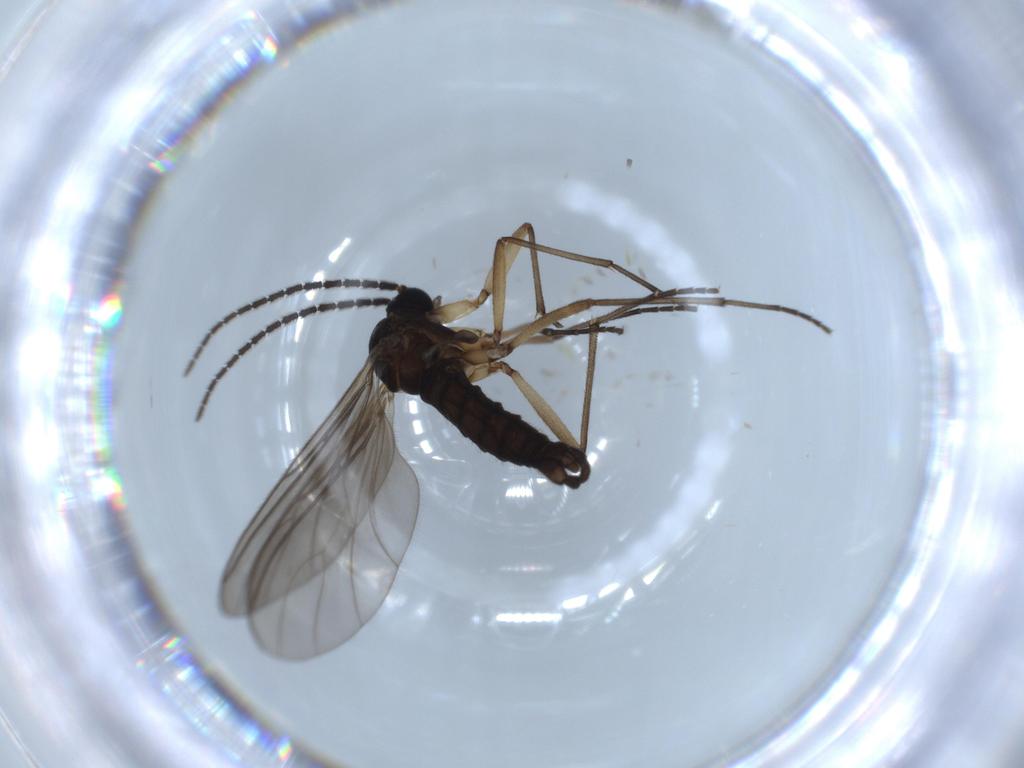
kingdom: Animalia
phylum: Arthropoda
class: Insecta
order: Diptera
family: Sciaridae
